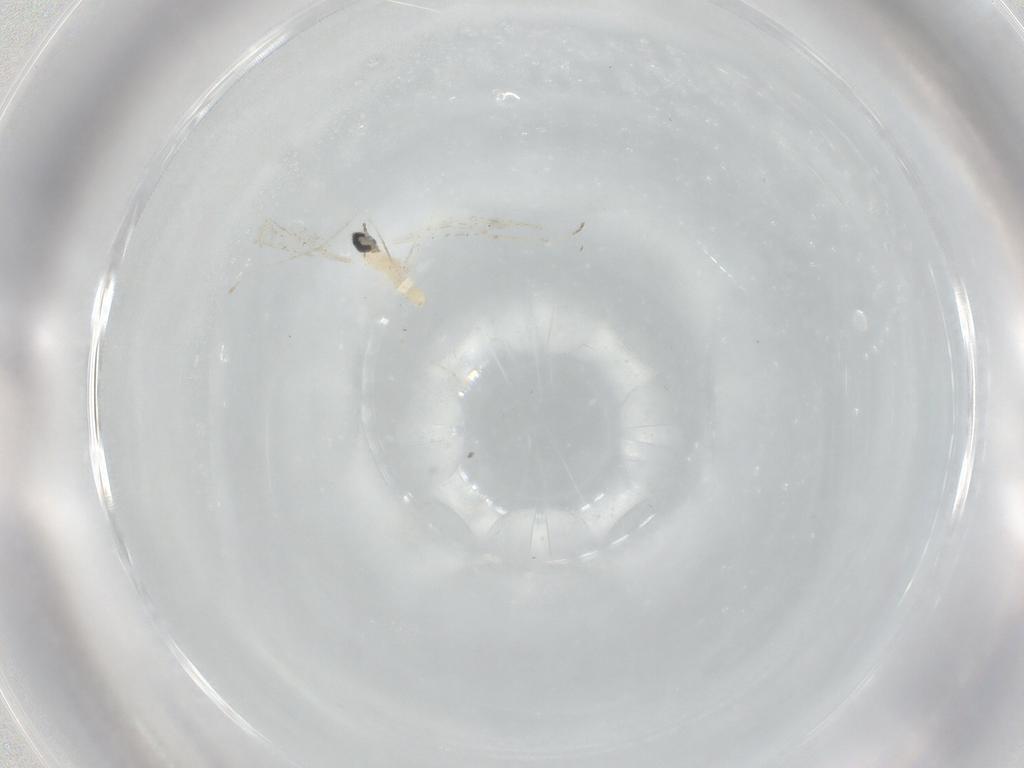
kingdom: Animalia
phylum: Arthropoda
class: Insecta
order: Diptera
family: Cecidomyiidae
